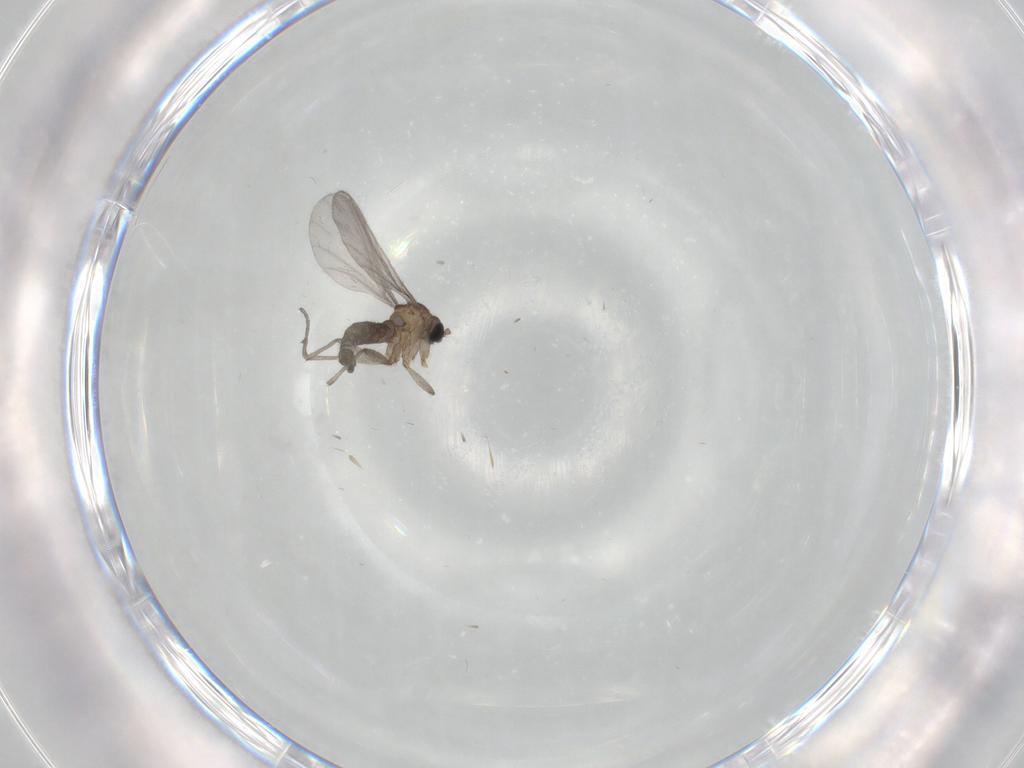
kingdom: Animalia
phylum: Arthropoda
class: Insecta
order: Diptera
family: Sciaridae
